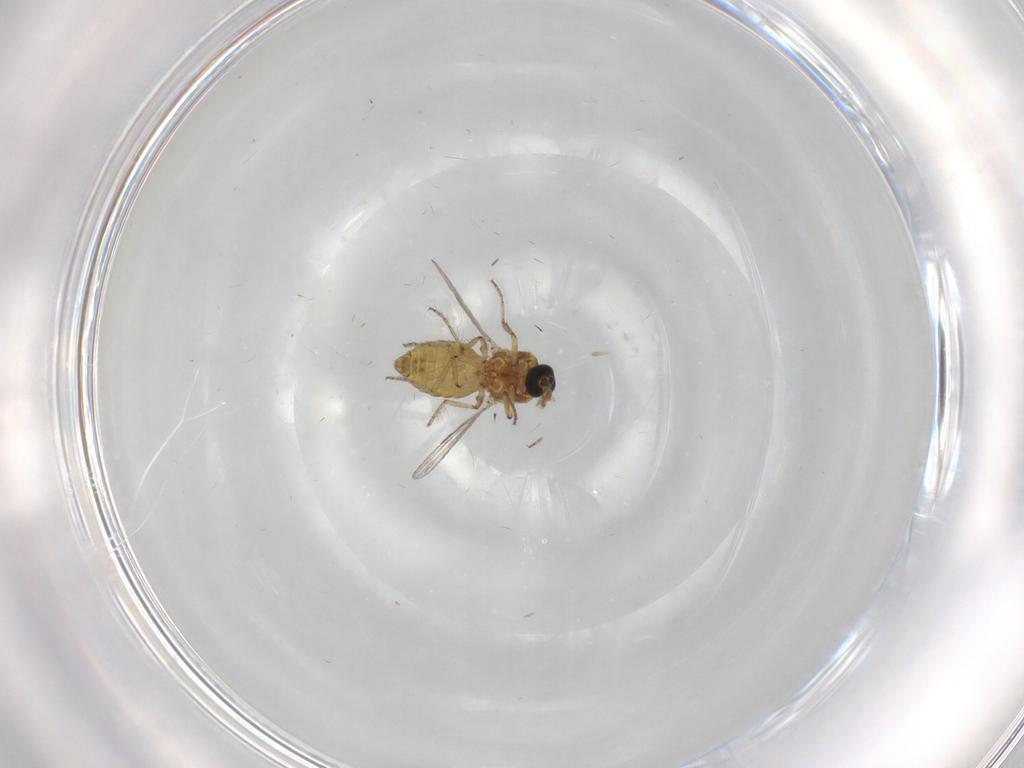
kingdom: Animalia
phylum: Arthropoda
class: Insecta
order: Diptera
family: Ceratopogonidae
